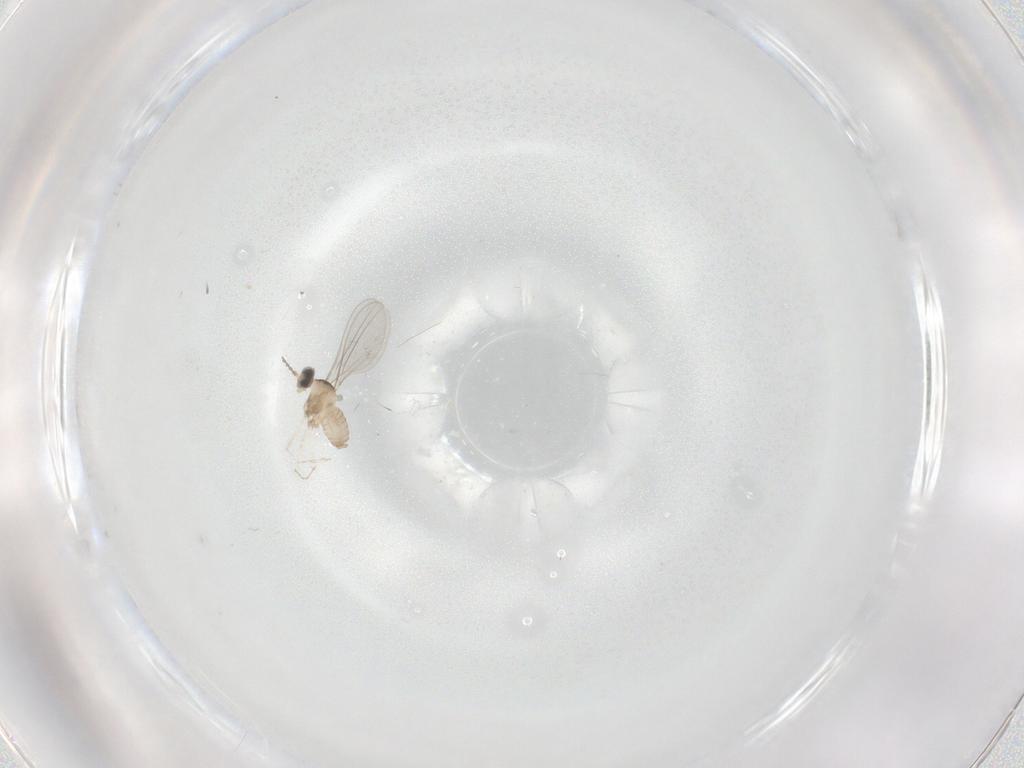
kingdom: Animalia
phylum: Arthropoda
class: Insecta
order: Diptera
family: Cecidomyiidae
